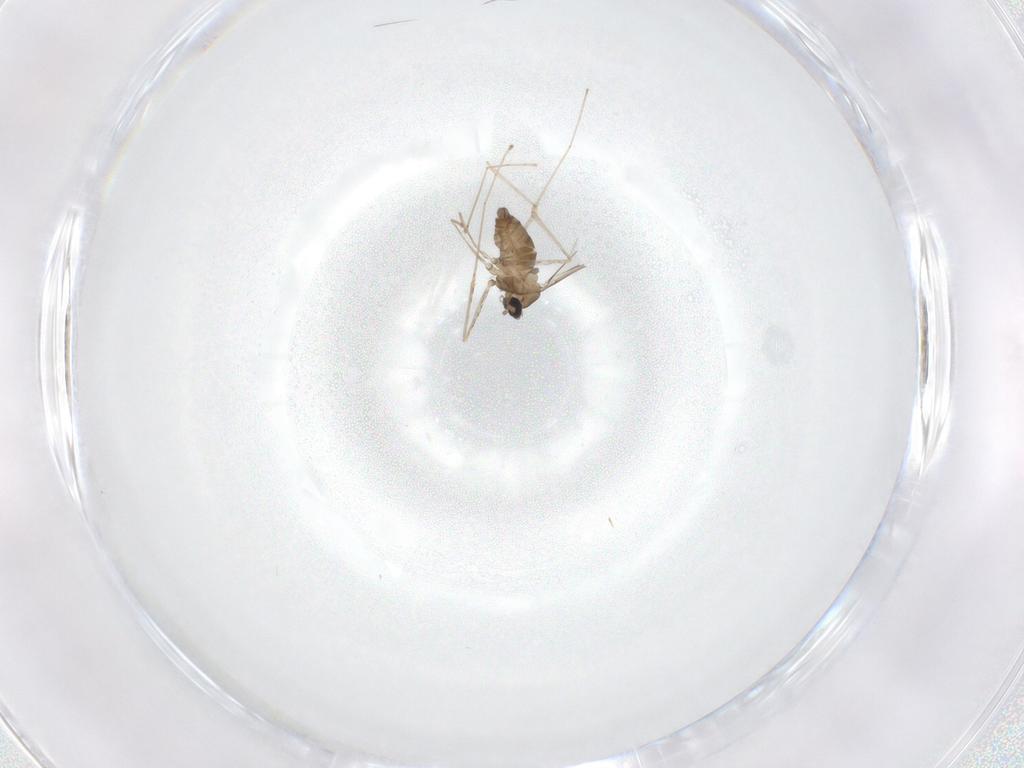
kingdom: Animalia
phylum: Arthropoda
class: Insecta
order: Diptera
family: Cecidomyiidae
